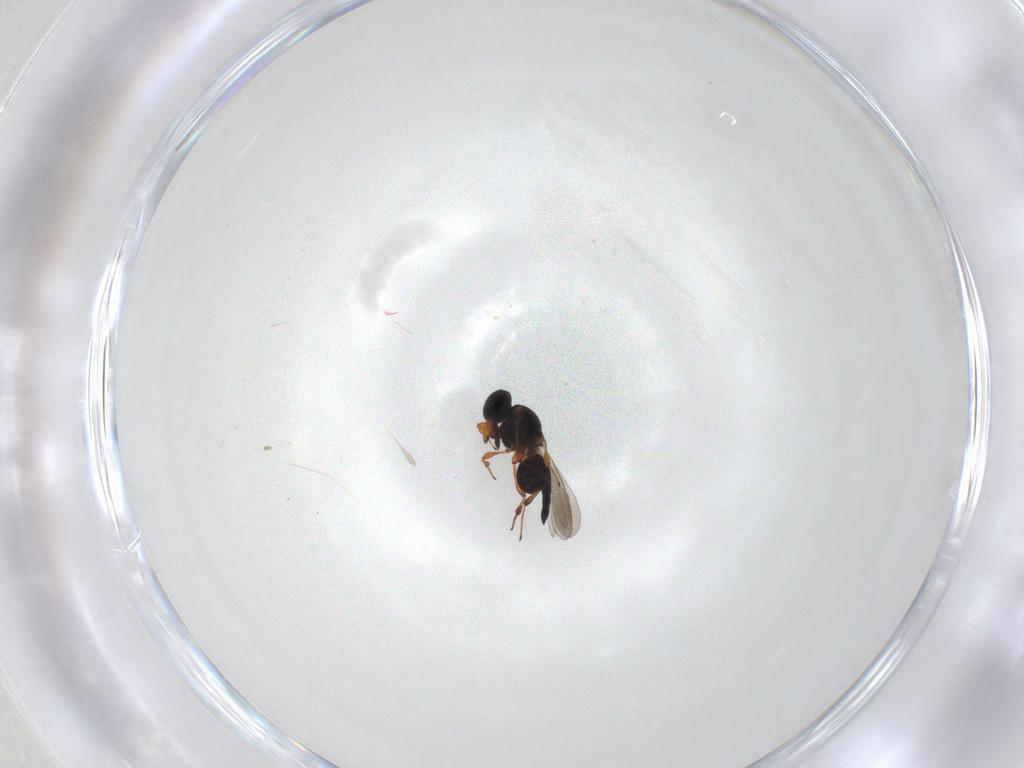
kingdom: Animalia
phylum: Arthropoda
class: Insecta
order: Hymenoptera
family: Platygastridae
